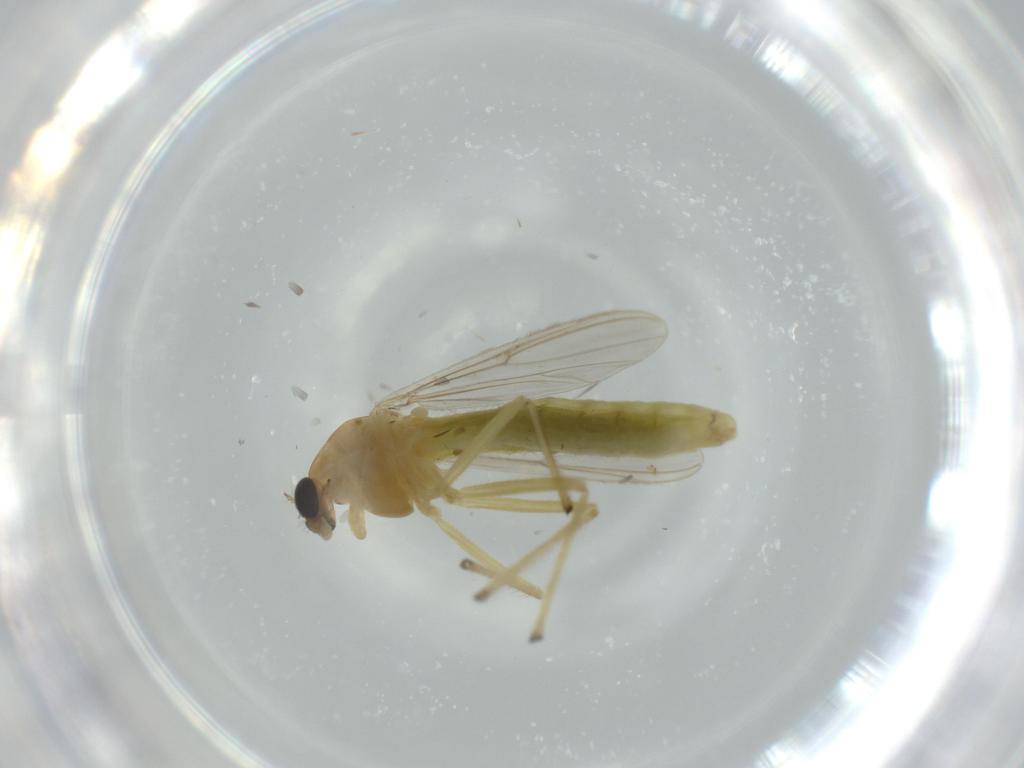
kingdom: Animalia
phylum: Arthropoda
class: Insecta
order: Diptera
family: Chironomidae
